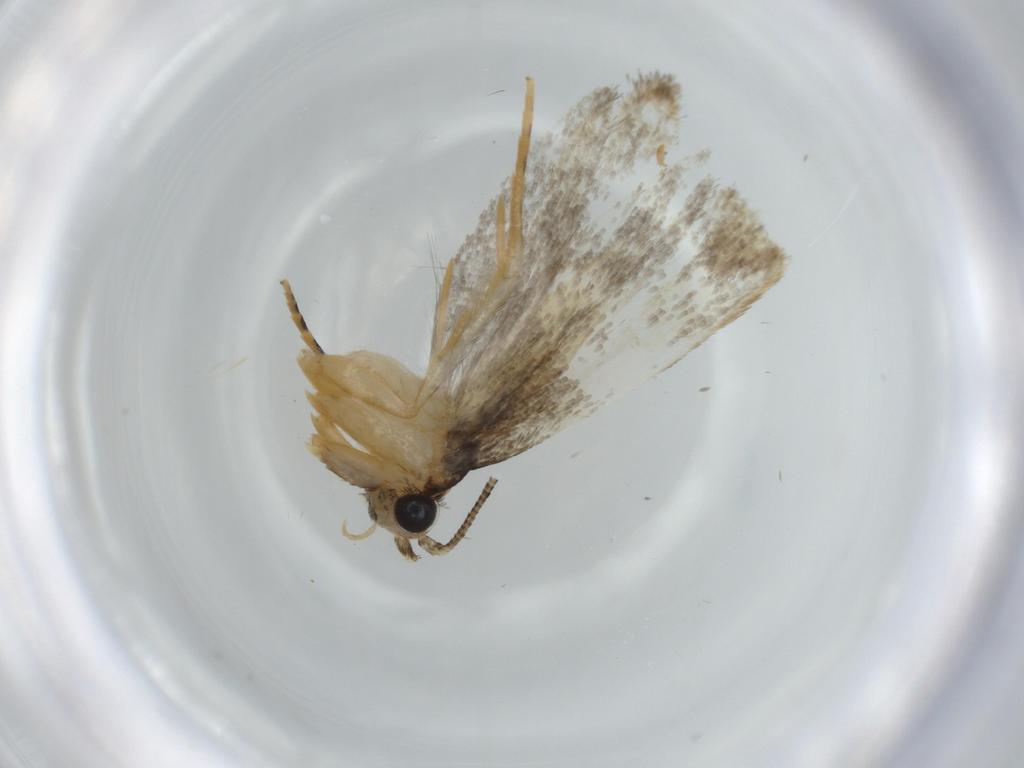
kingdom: Animalia
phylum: Arthropoda
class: Insecta
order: Lepidoptera
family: Tineidae
